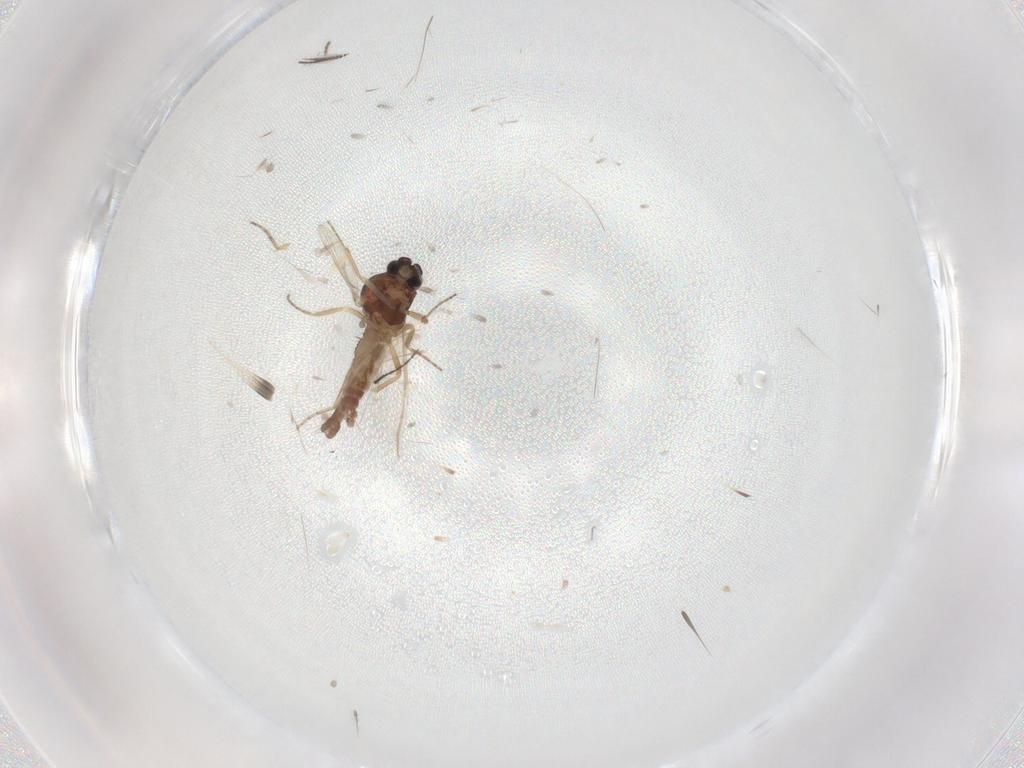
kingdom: Animalia
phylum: Arthropoda
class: Insecta
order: Diptera
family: Ceratopogonidae
